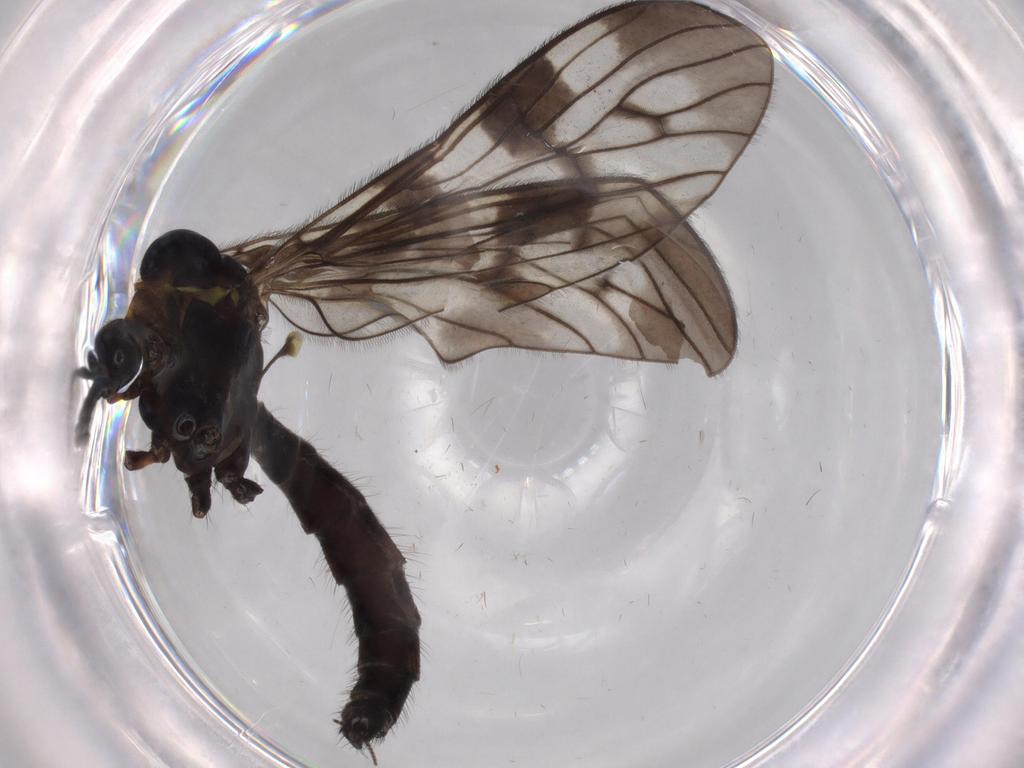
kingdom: Animalia
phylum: Arthropoda
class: Insecta
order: Diptera
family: Limoniidae
